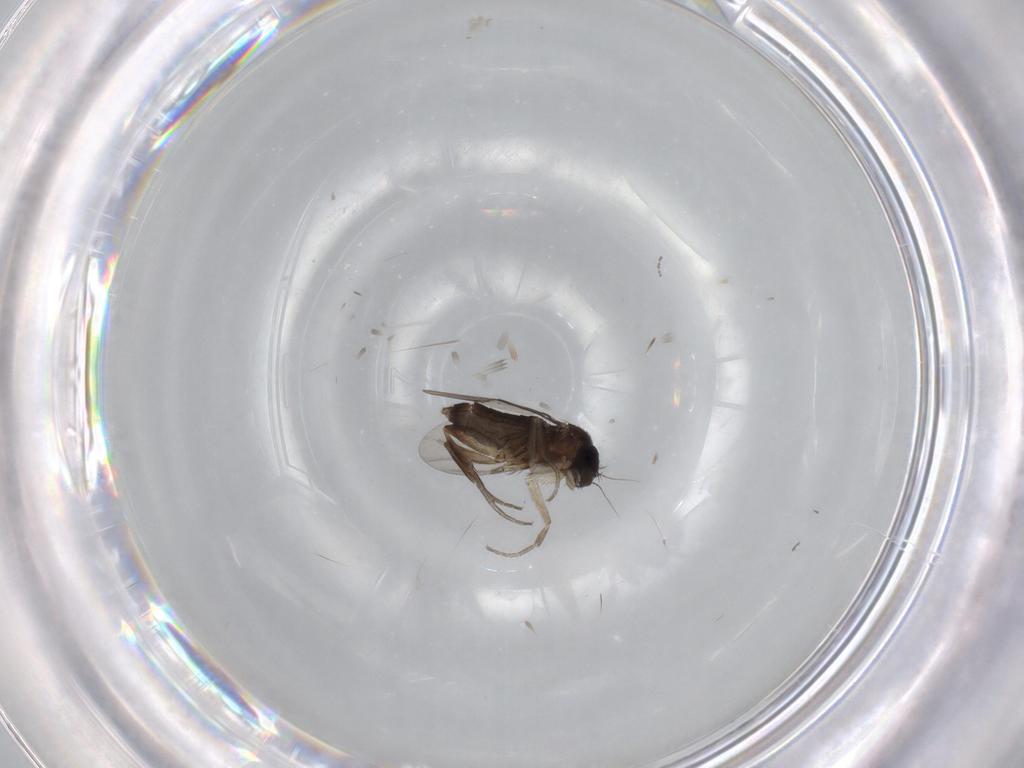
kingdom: Animalia
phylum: Arthropoda
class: Insecta
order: Diptera
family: Phoridae
